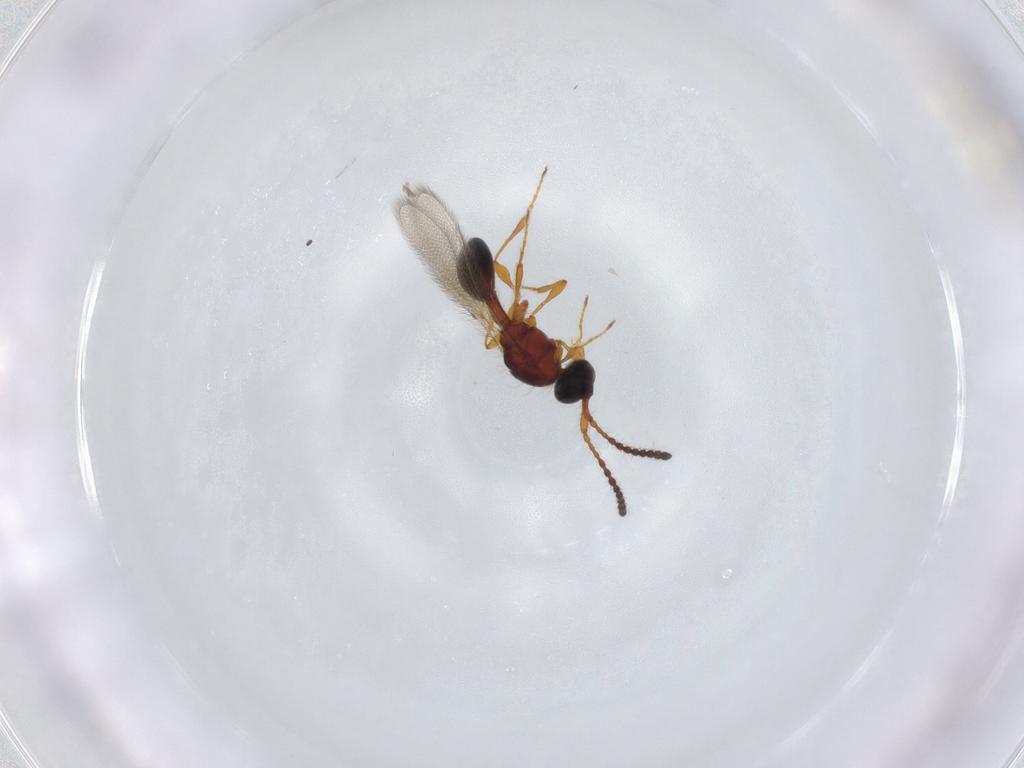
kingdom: Animalia
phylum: Arthropoda
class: Insecta
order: Hymenoptera
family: Diapriidae
